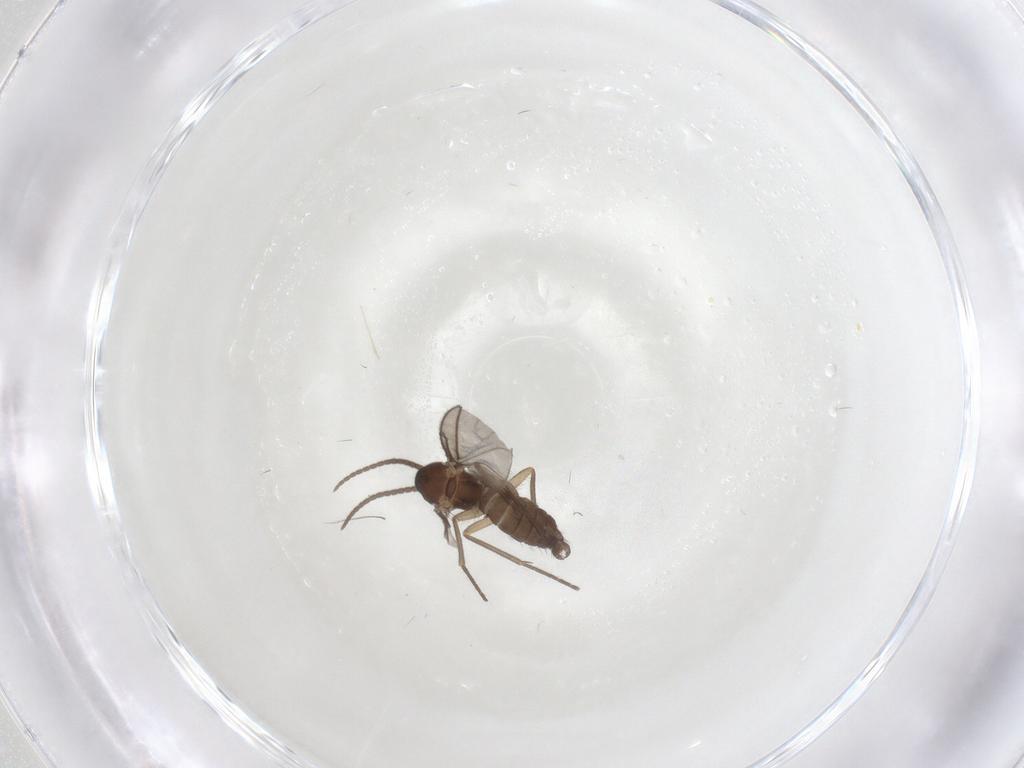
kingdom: Animalia
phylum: Arthropoda
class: Insecta
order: Diptera
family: Sciaridae
